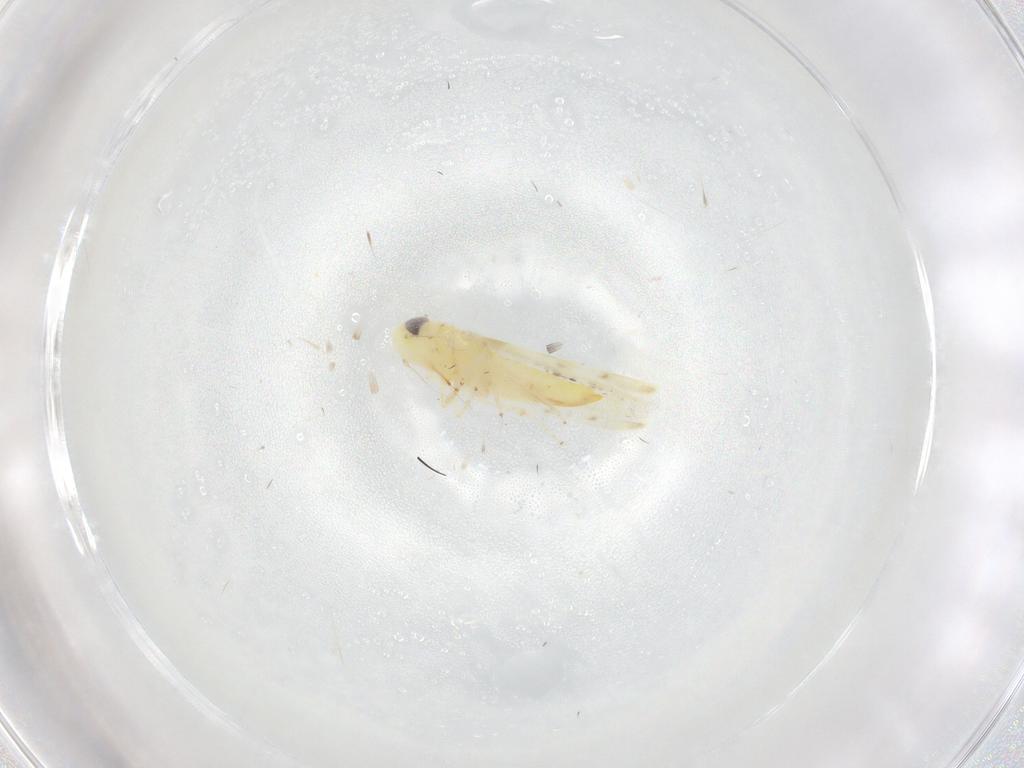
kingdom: Animalia
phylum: Arthropoda
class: Insecta
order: Hemiptera
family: Cicadellidae
